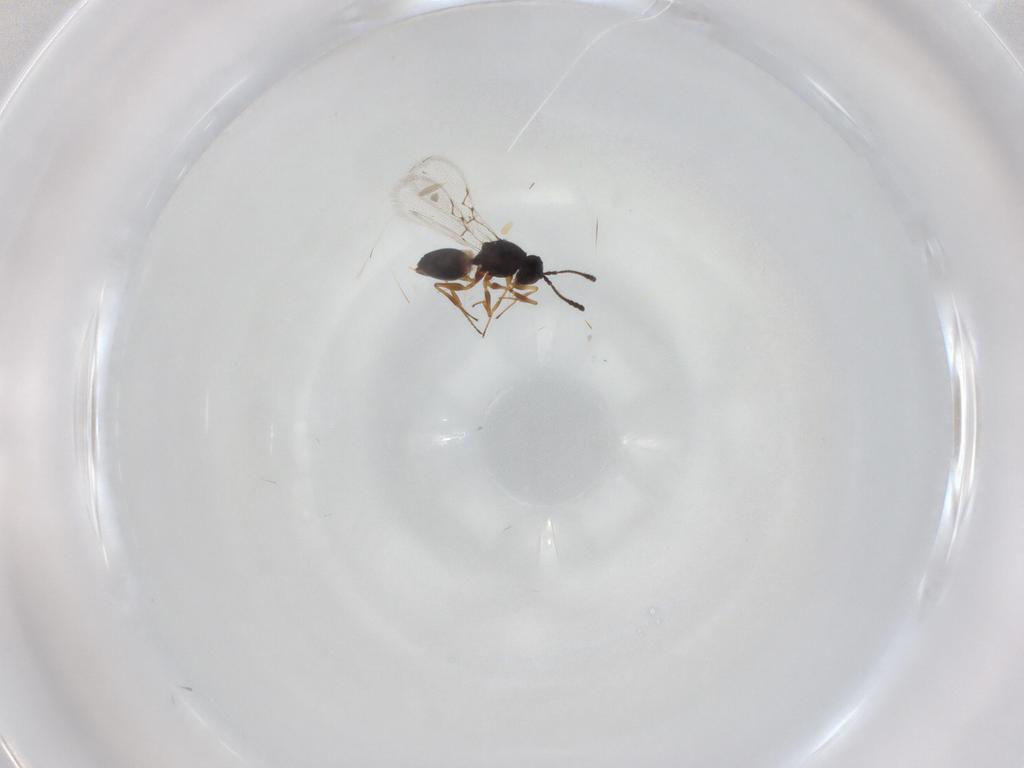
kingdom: Animalia
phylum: Arthropoda
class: Insecta
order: Hymenoptera
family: Figitidae
